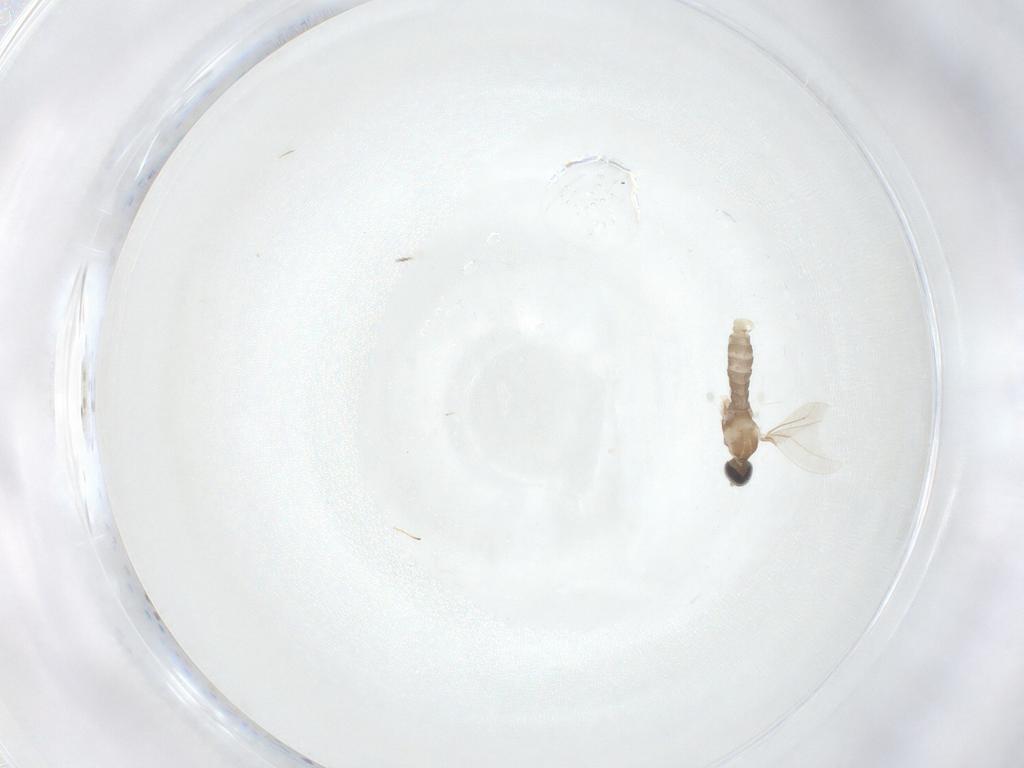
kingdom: Animalia
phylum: Arthropoda
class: Insecta
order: Diptera
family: Cecidomyiidae
